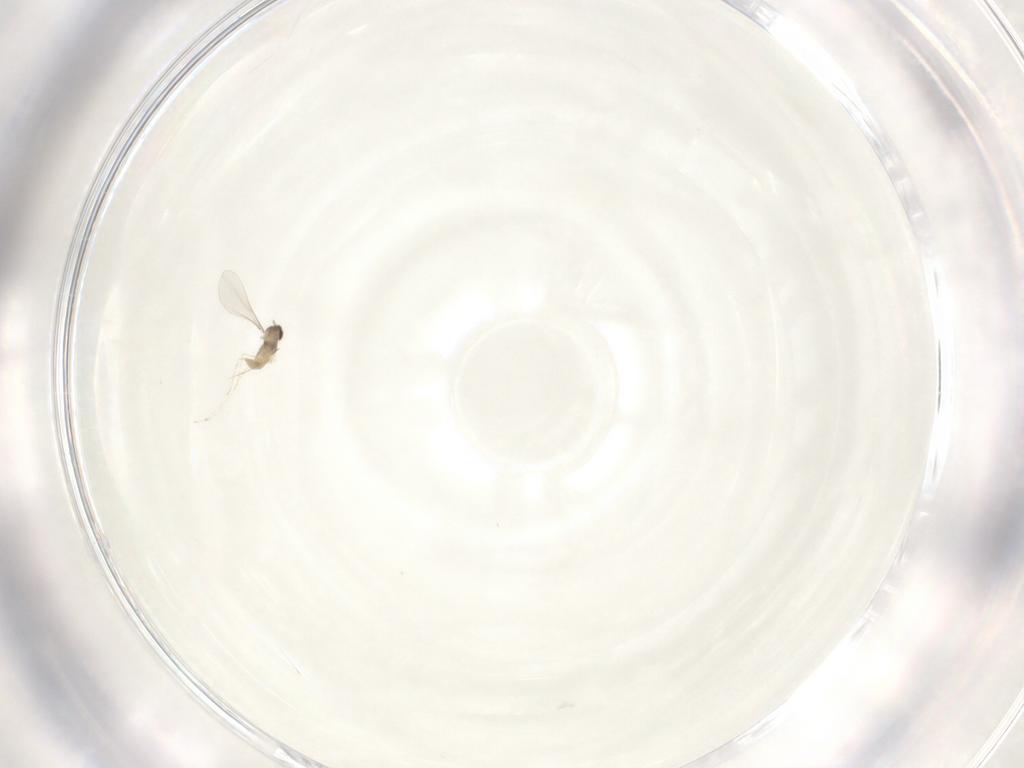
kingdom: Animalia
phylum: Arthropoda
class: Insecta
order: Diptera
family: Cecidomyiidae
